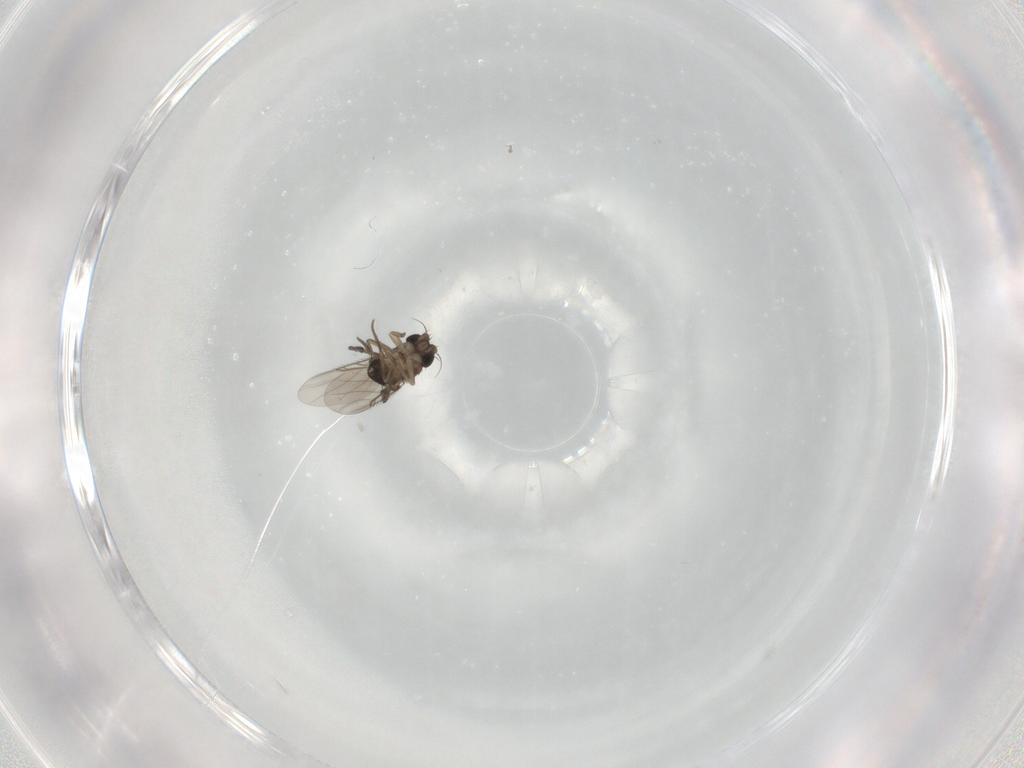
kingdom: Animalia
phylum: Arthropoda
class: Insecta
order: Diptera
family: Phoridae
